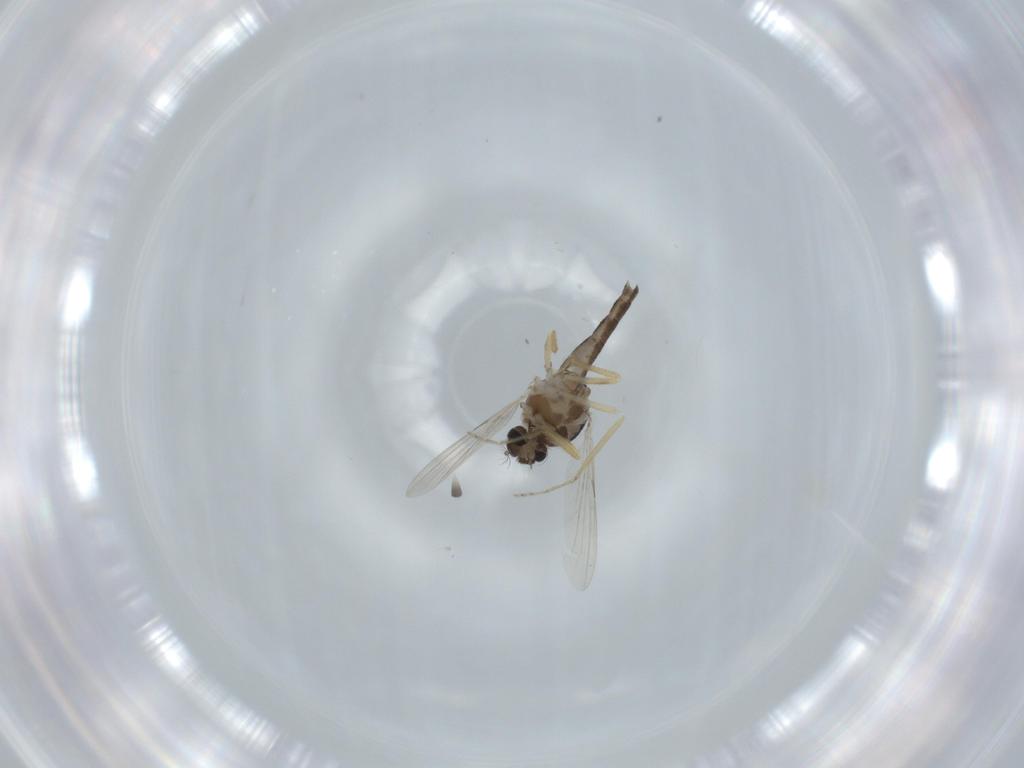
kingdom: Animalia
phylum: Arthropoda
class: Insecta
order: Diptera
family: Ceratopogonidae
